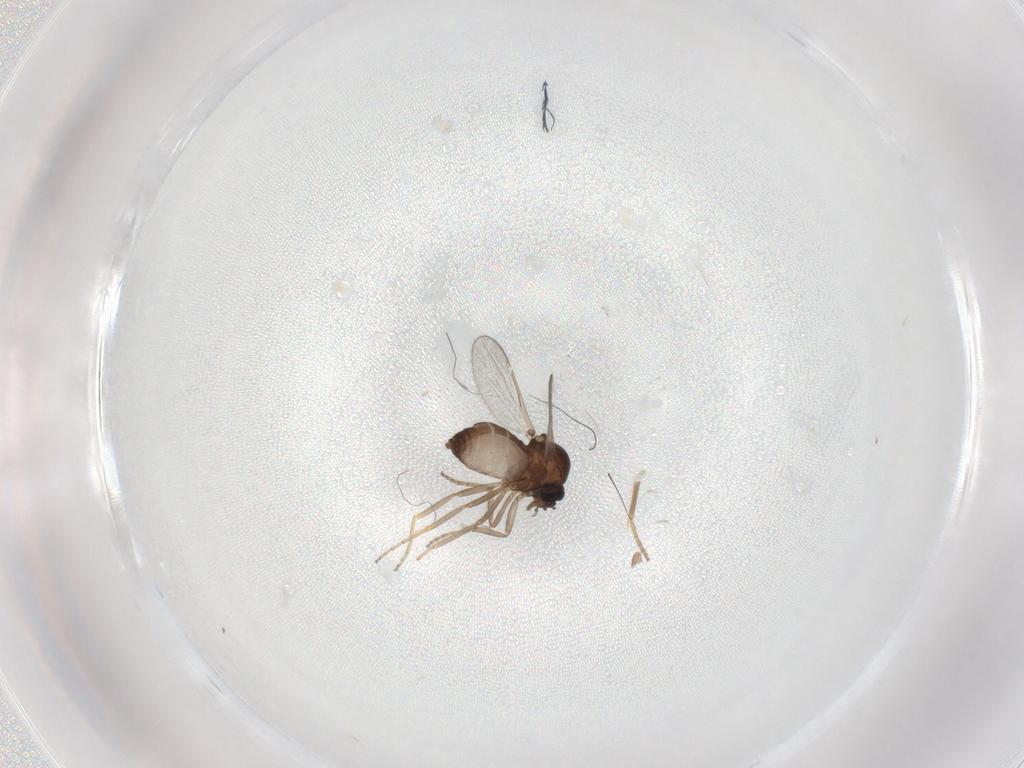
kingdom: Animalia
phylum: Arthropoda
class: Insecta
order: Diptera
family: Ceratopogonidae
